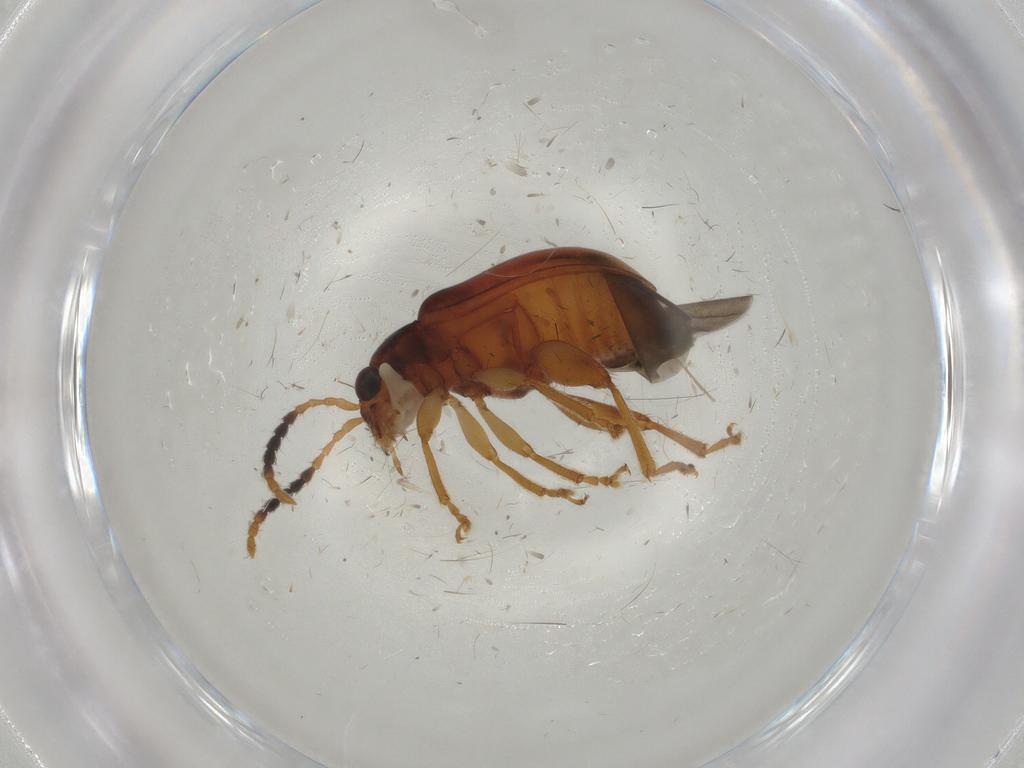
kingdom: Animalia
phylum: Arthropoda
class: Insecta
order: Coleoptera
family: Chrysomelidae
